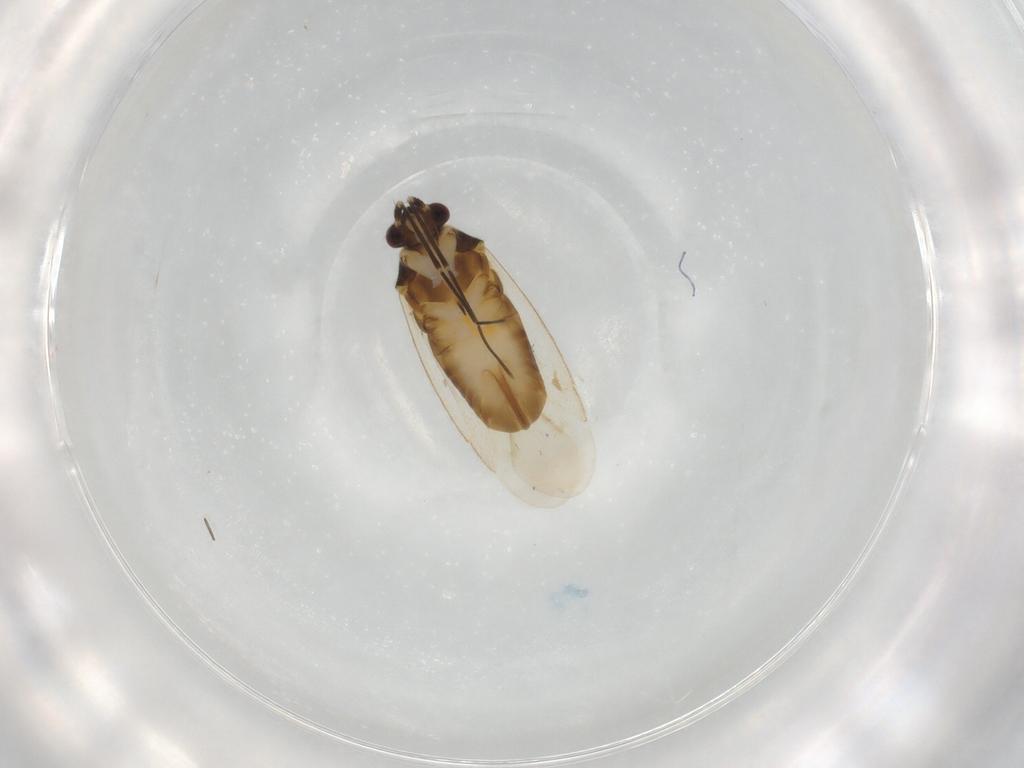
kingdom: Animalia
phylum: Arthropoda
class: Insecta
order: Hemiptera
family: Miridae
